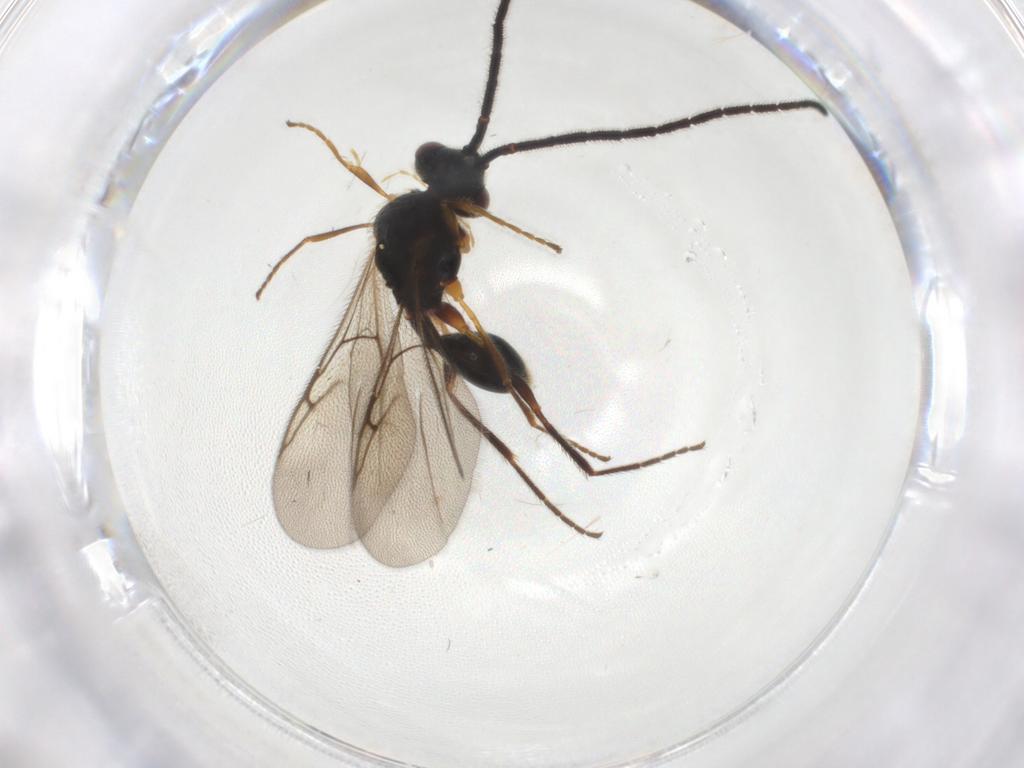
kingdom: Animalia
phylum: Arthropoda
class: Insecta
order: Hymenoptera
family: Diapriidae
